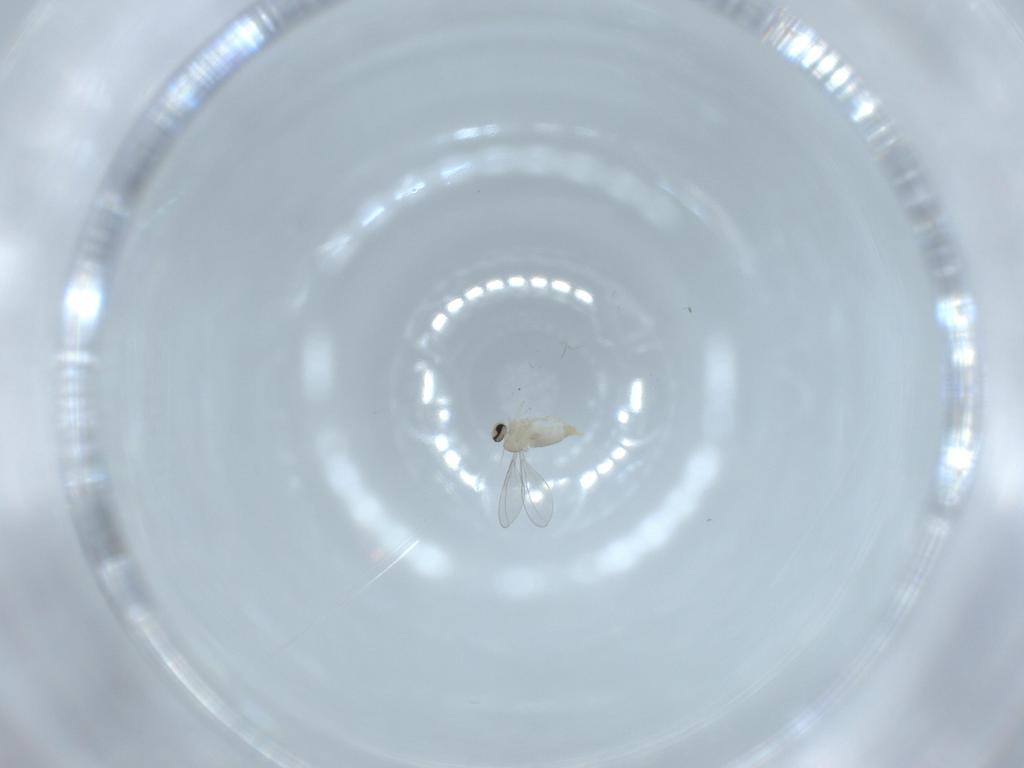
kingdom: Animalia
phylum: Arthropoda
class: Insecta
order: Diptera
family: Cecidomyiidae
